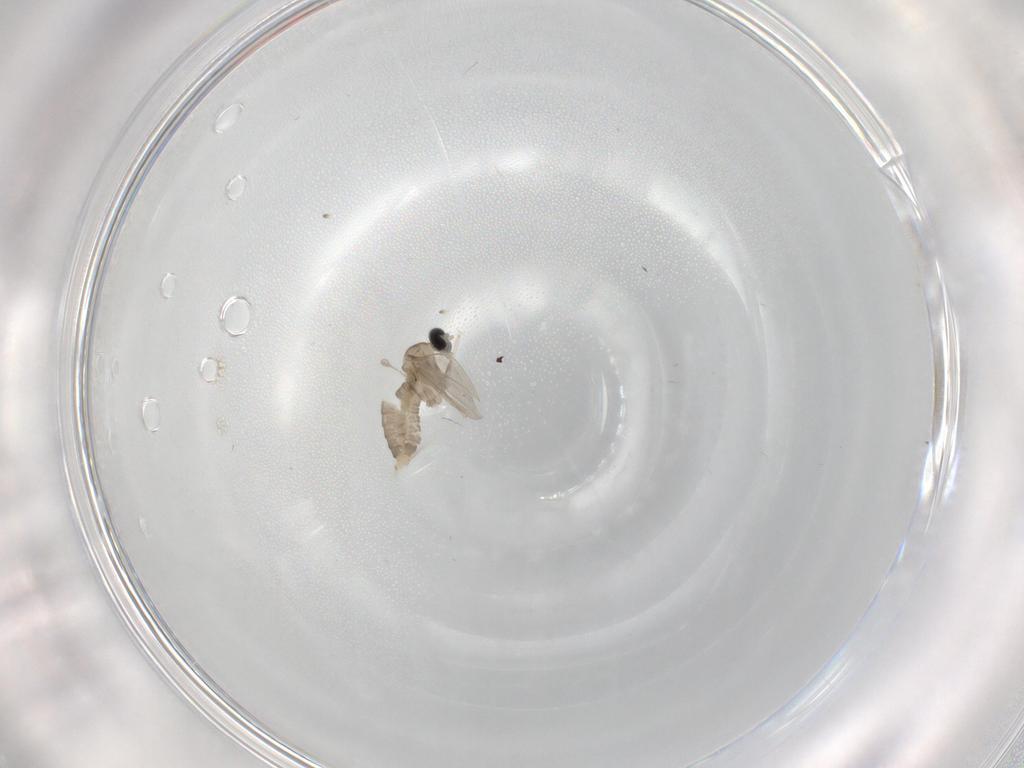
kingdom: Animalia
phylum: Arthropoda
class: Insecta
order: Diptera
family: Cecidomyiidae
